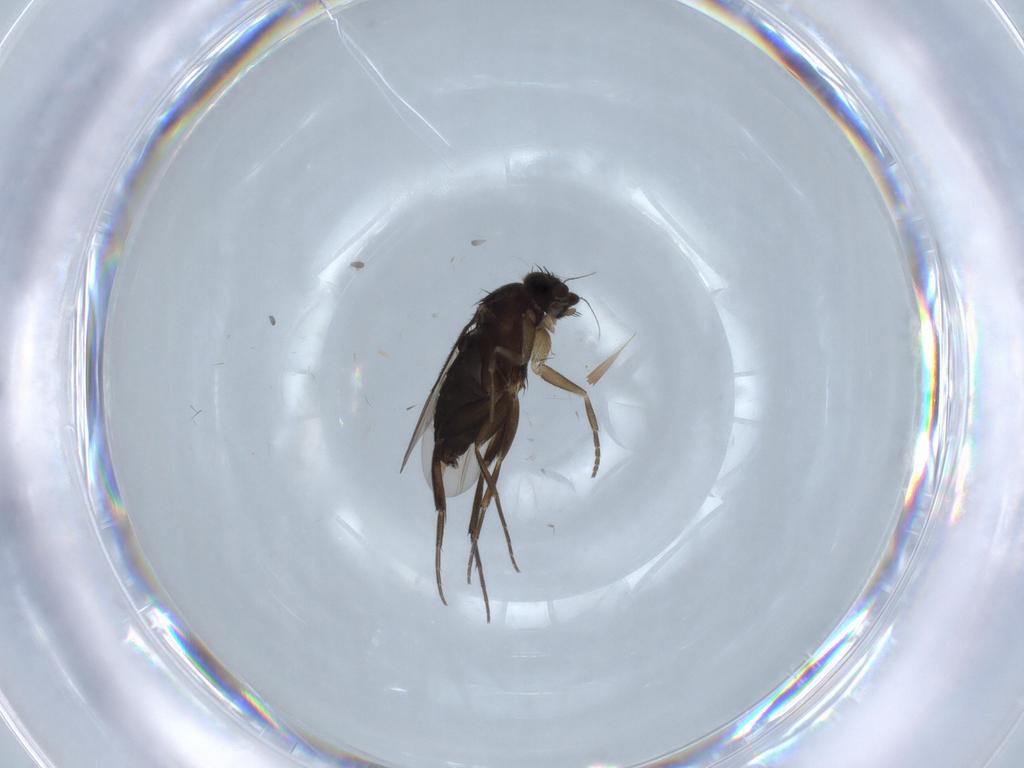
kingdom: Animalia
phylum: Arthropoda
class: Insecta
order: Diptera
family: Phoridae
